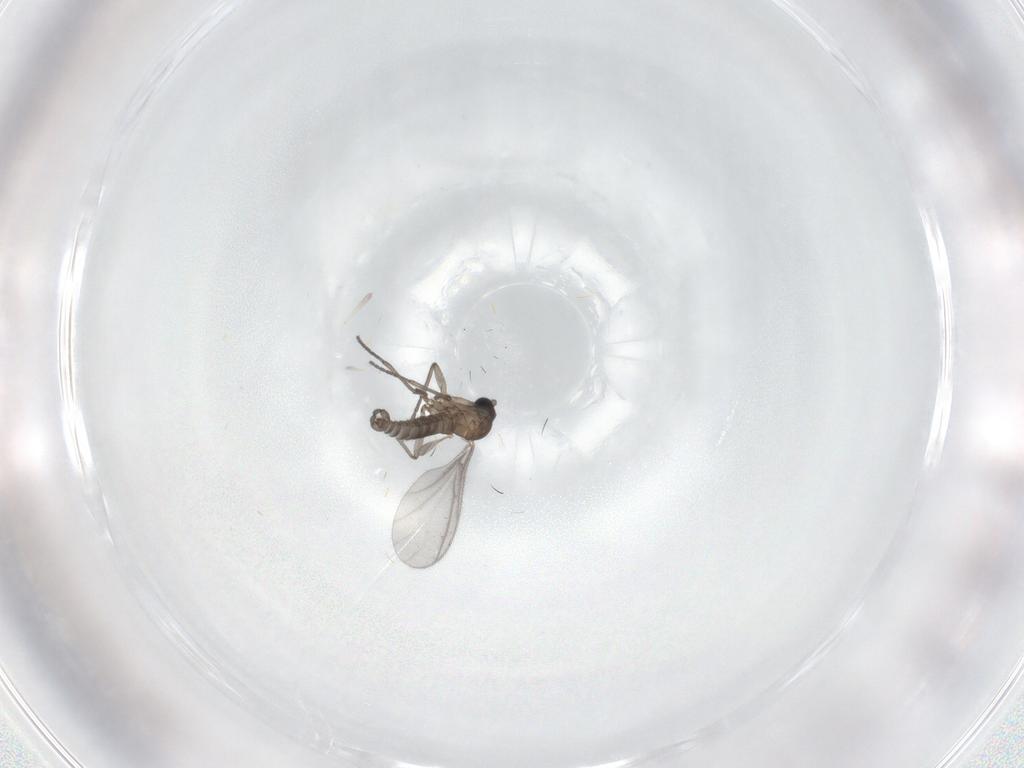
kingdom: Animalia
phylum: Arthropoda
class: Insecta
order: Diptera
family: Sciaridae
